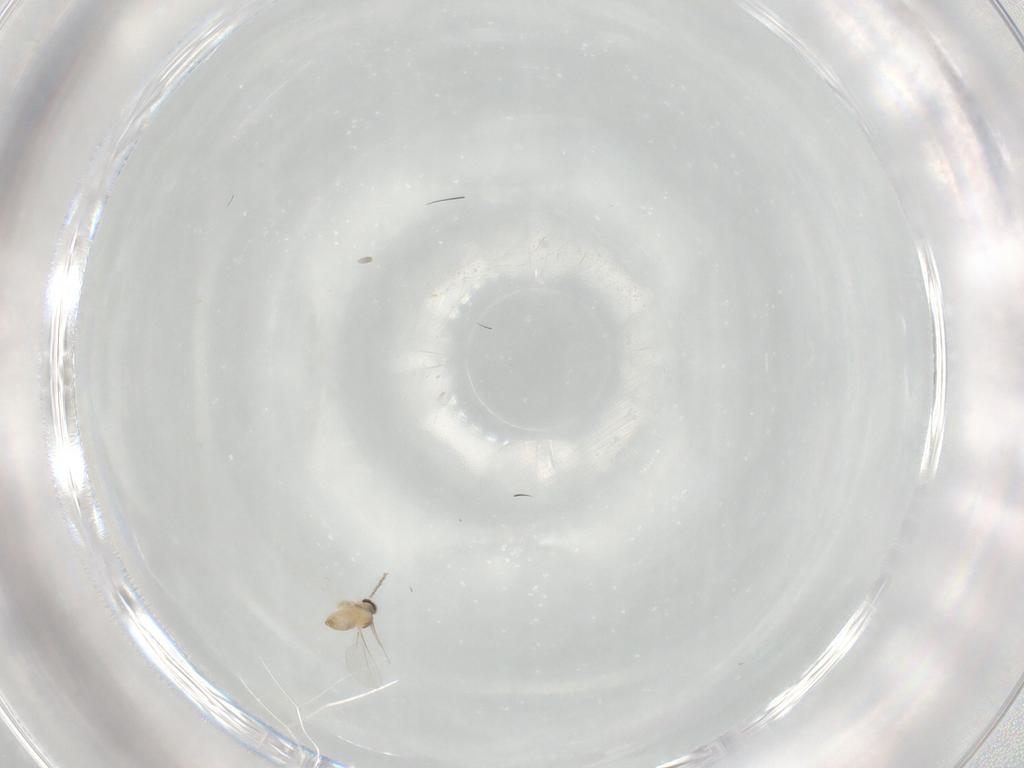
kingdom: Animalia
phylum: Arthropoda
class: Insecta
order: Diptera
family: Cecidomyiidae
